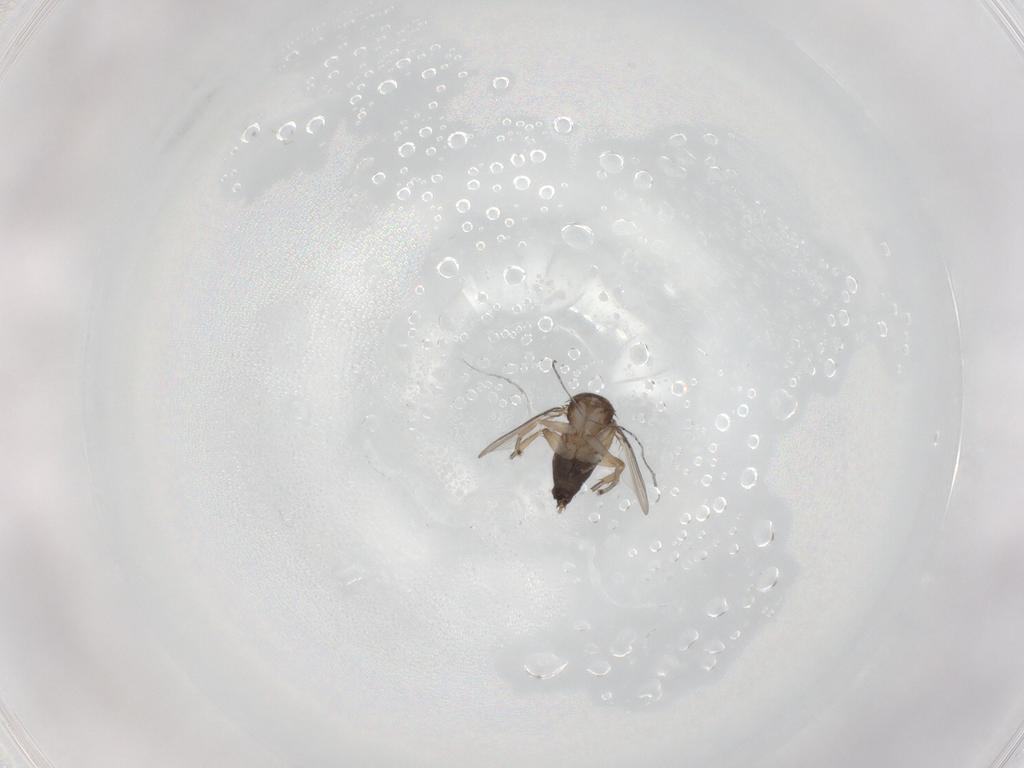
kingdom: Animalia
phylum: Arthropoda
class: Insecta
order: Diptera
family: Phoridae
